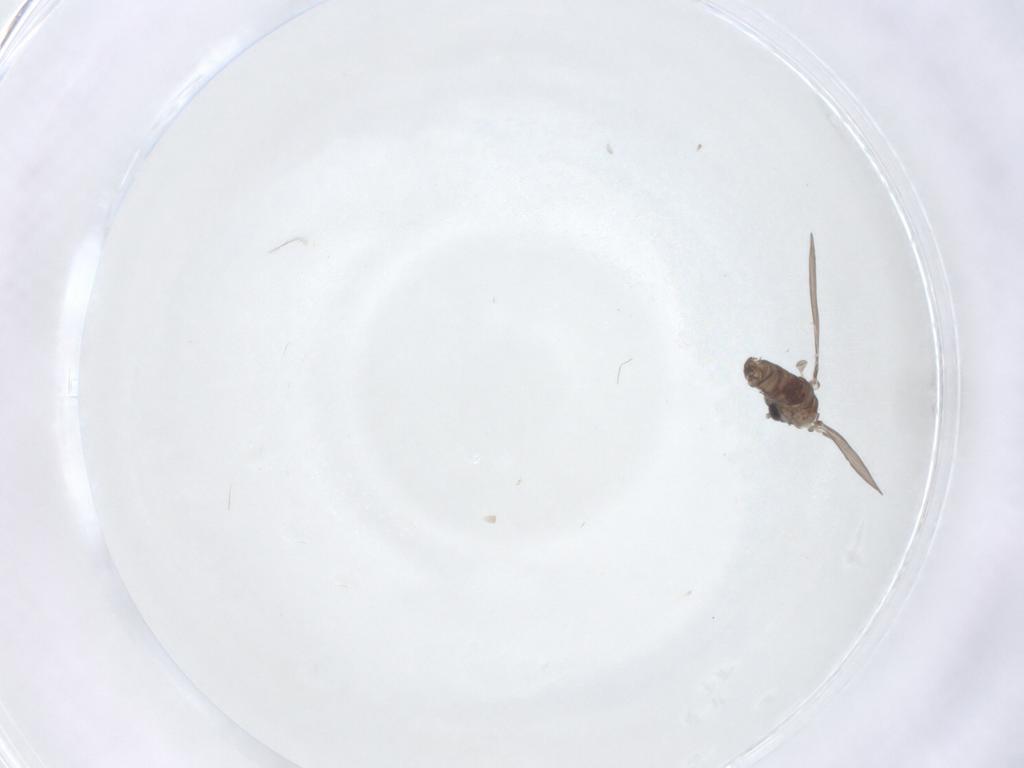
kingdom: Animalia
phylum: Arthropoda
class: Insecta
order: Diptera
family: Psychodidae
